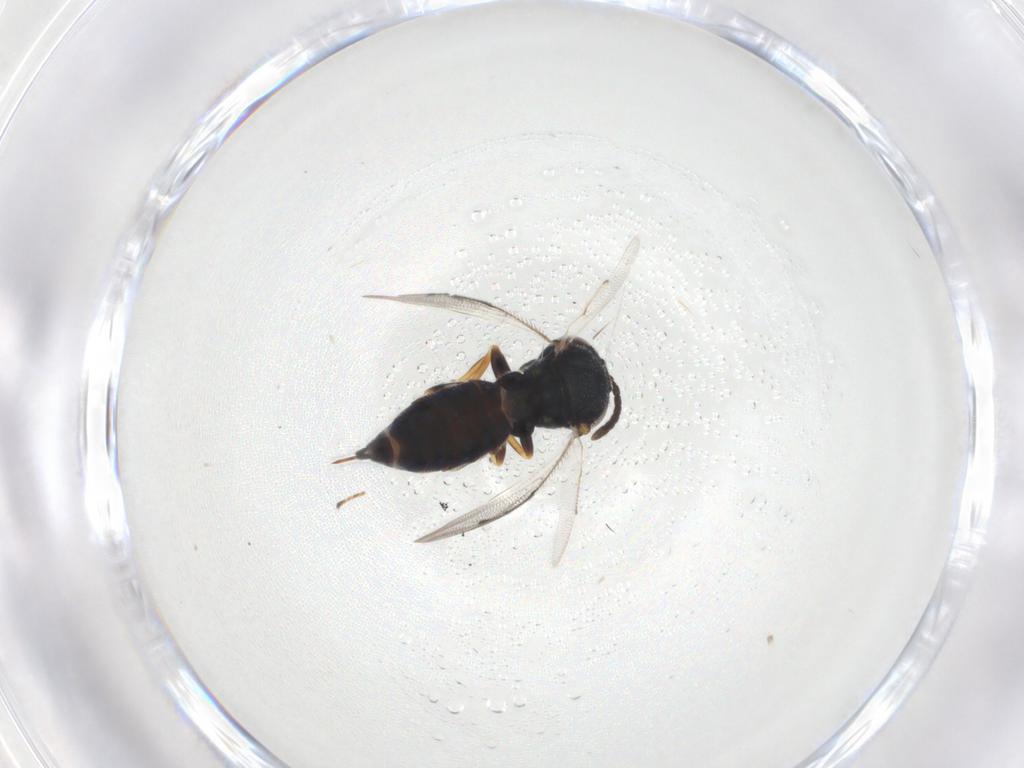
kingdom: Animalia
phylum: Arthropoda
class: Insecta
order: Hymenoptera
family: Pteromalidae
